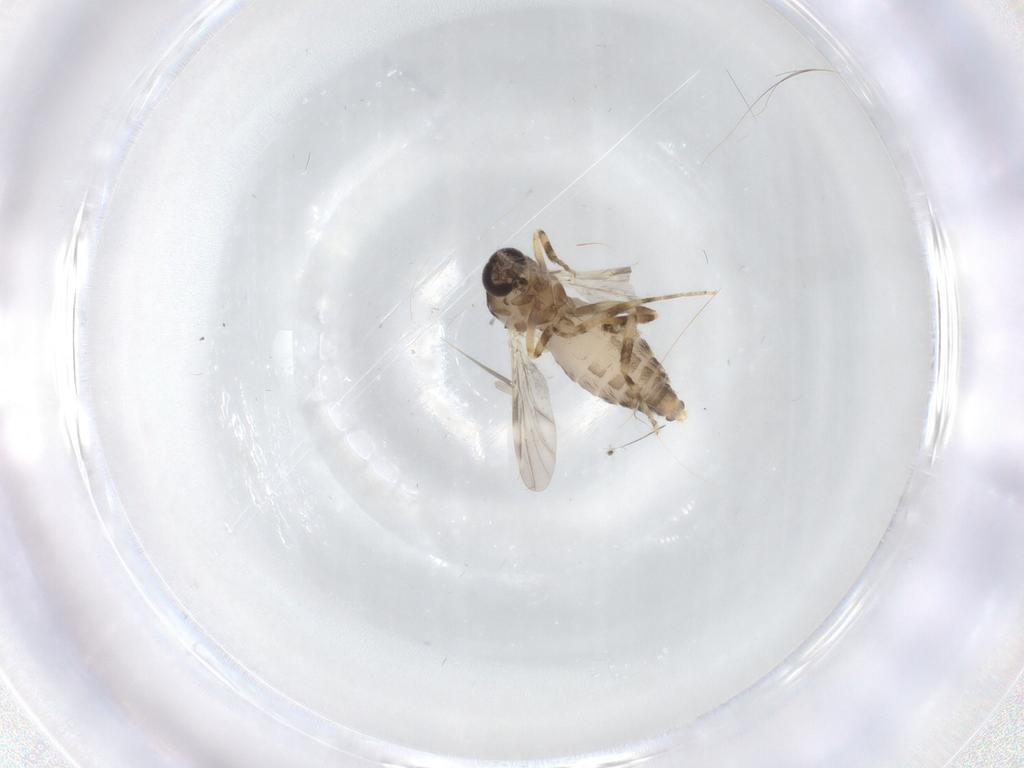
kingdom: Animalia
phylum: Arthropoda
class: Insecta
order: Diptera
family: Ceratopogonidae
